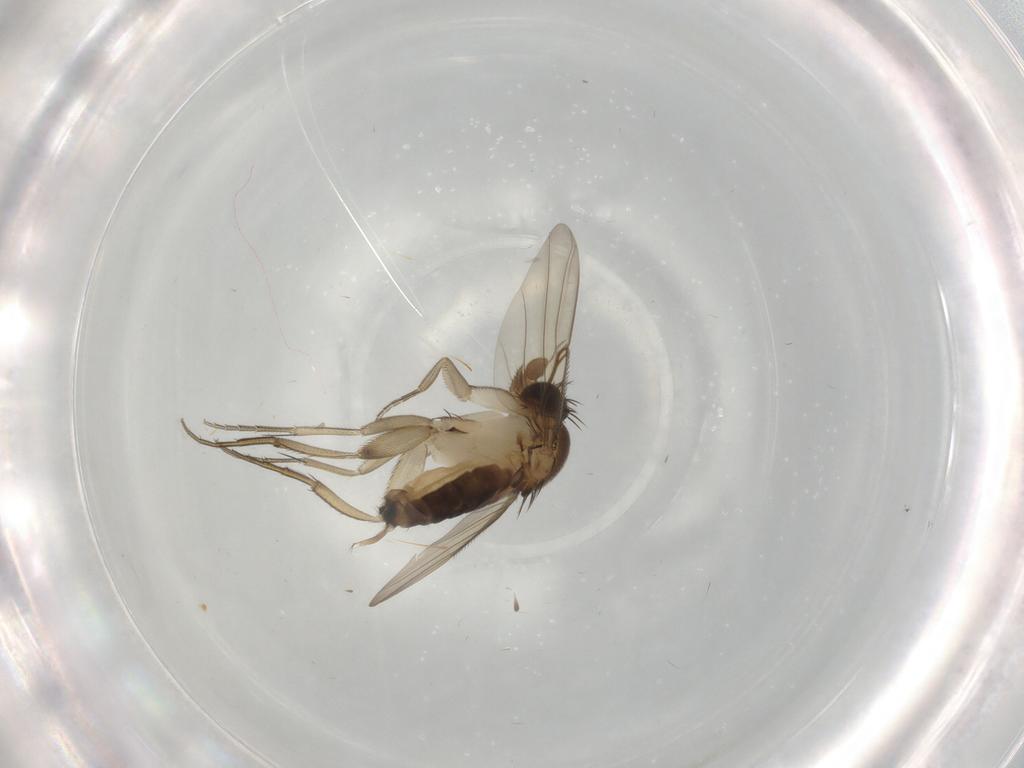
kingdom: Animalia
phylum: Arthropoda
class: Insecta
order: Diptera
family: Phoridae
